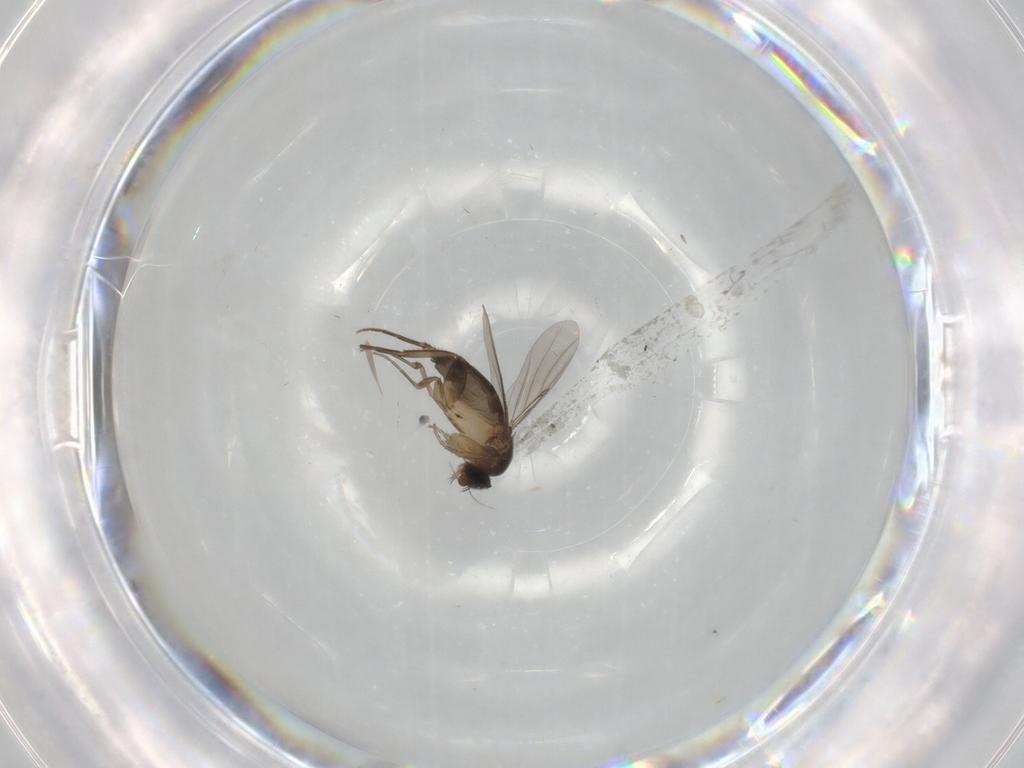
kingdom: Animalia
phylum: Arthropoda
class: Insecta
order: Diptera
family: Phoridae
